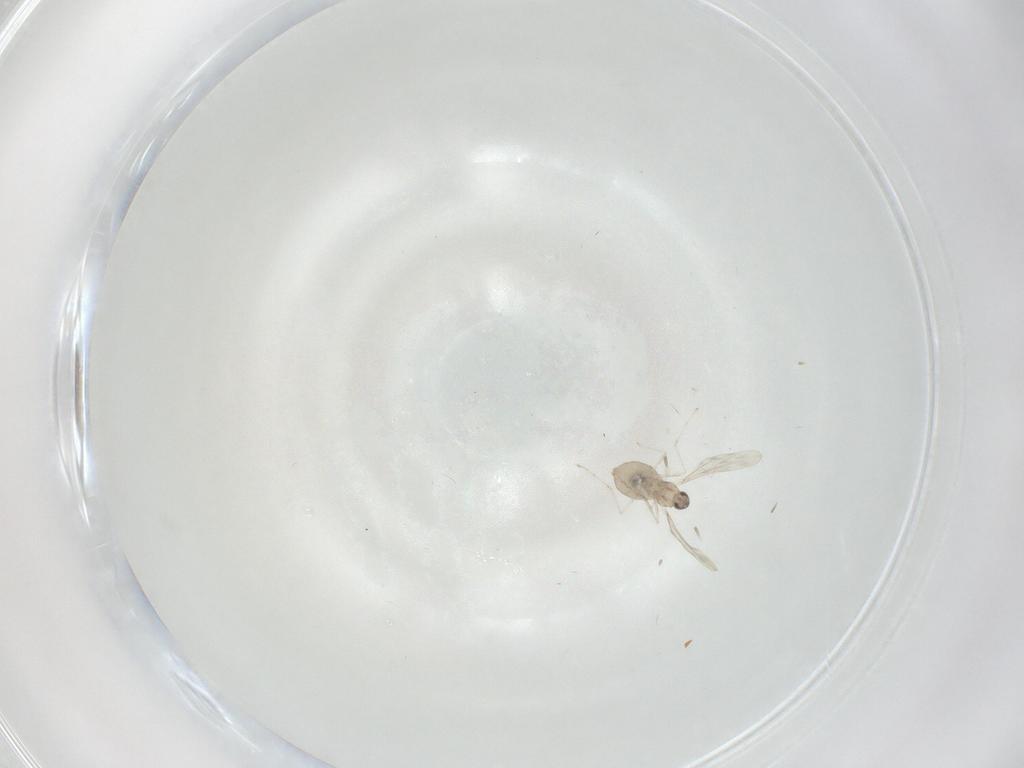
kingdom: Animalia
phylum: Arthropoda
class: Insecta
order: Diptera
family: Cecidomyiidae
